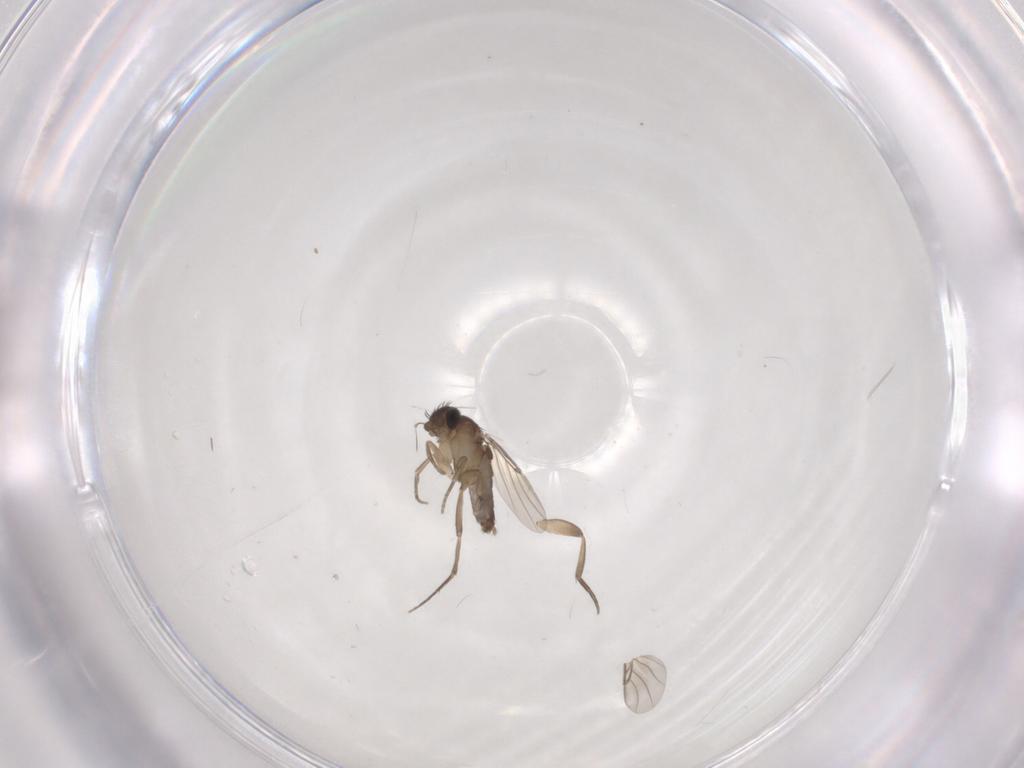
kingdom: Animalia
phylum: Arthropoda
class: Insecta
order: Diptera
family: Phoridae
